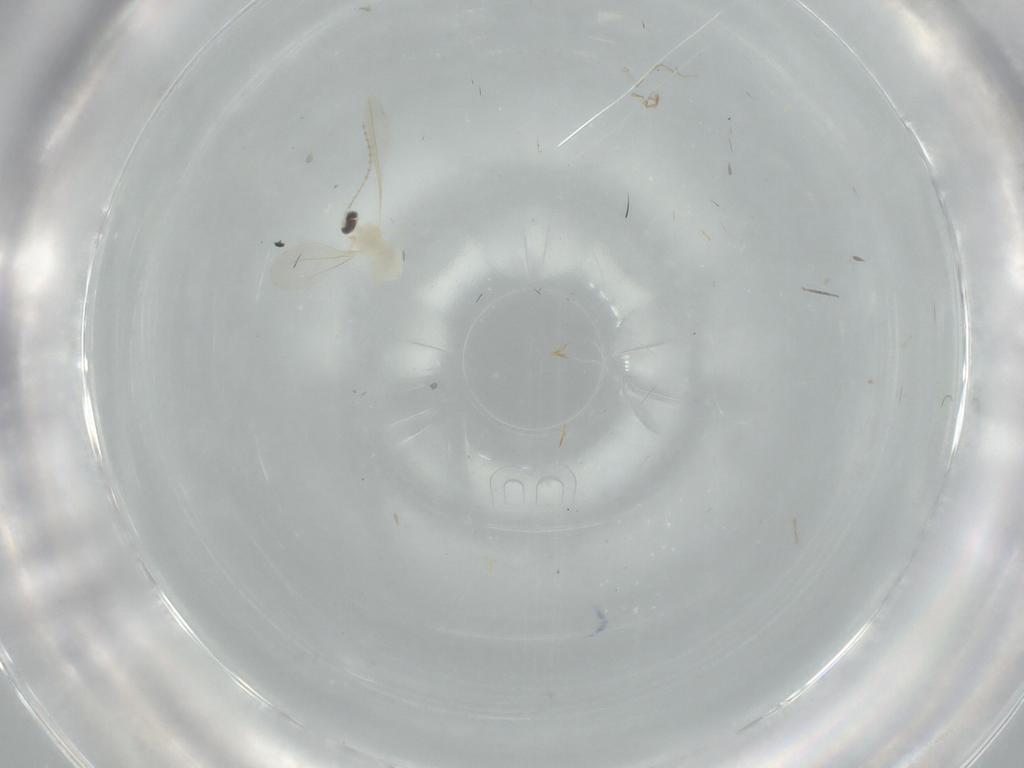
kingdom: Animalia
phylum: Arthropoda
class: Insecta
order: Diptera
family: Cecidomyiidae
